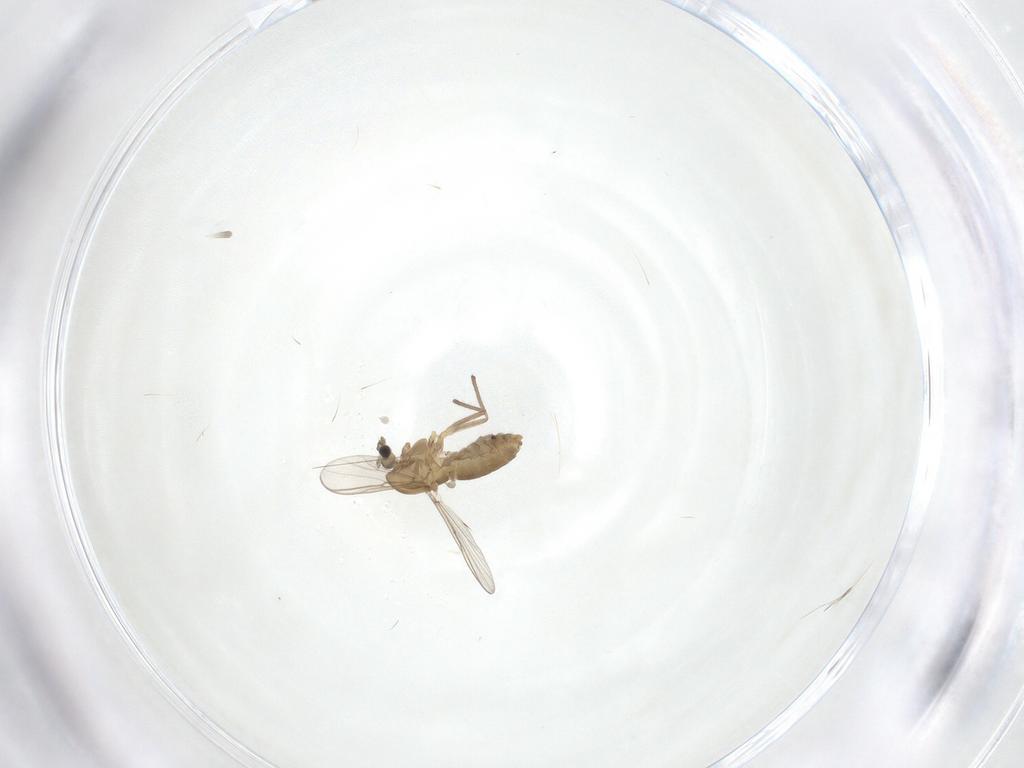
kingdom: Animalia
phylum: Arthropoda
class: Insecta
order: Diptera
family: Chironomidae
